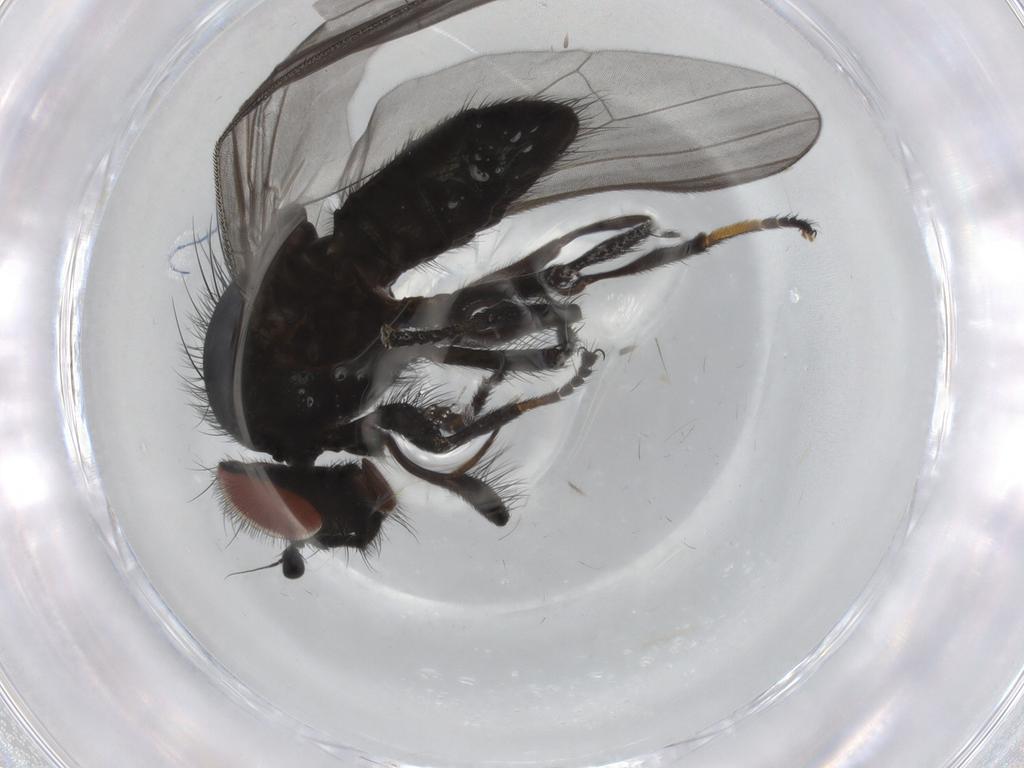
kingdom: Animalia
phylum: Arthropoda
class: Insecta
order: Diptera
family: Lonchaeidae
